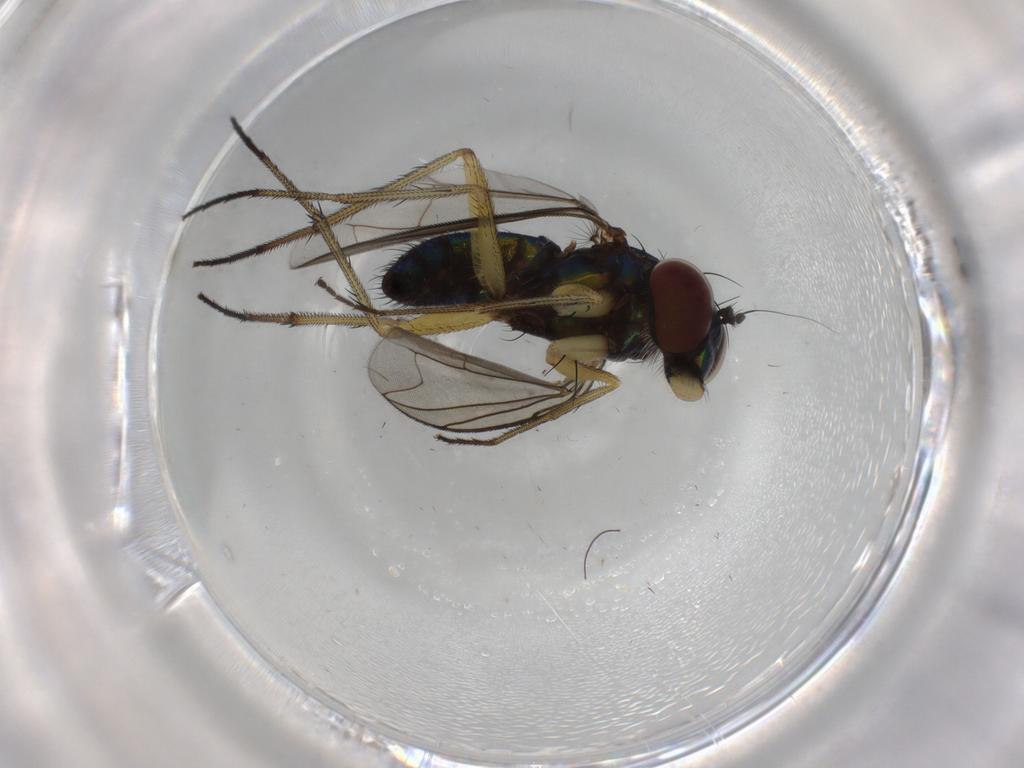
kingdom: Animalia
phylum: Arthropoda
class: Insecta
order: Diptera
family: Dolichopodidae
